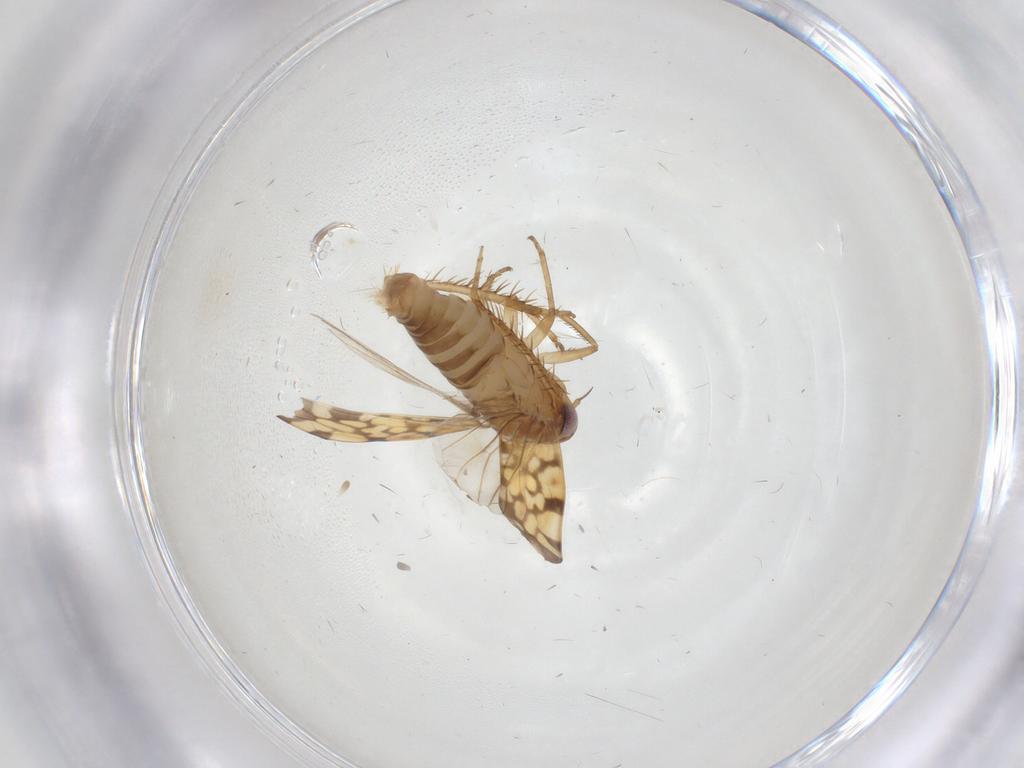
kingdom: Animalia
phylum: Arthropoda
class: Insecta
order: Hemiptera
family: Cicadellidae
